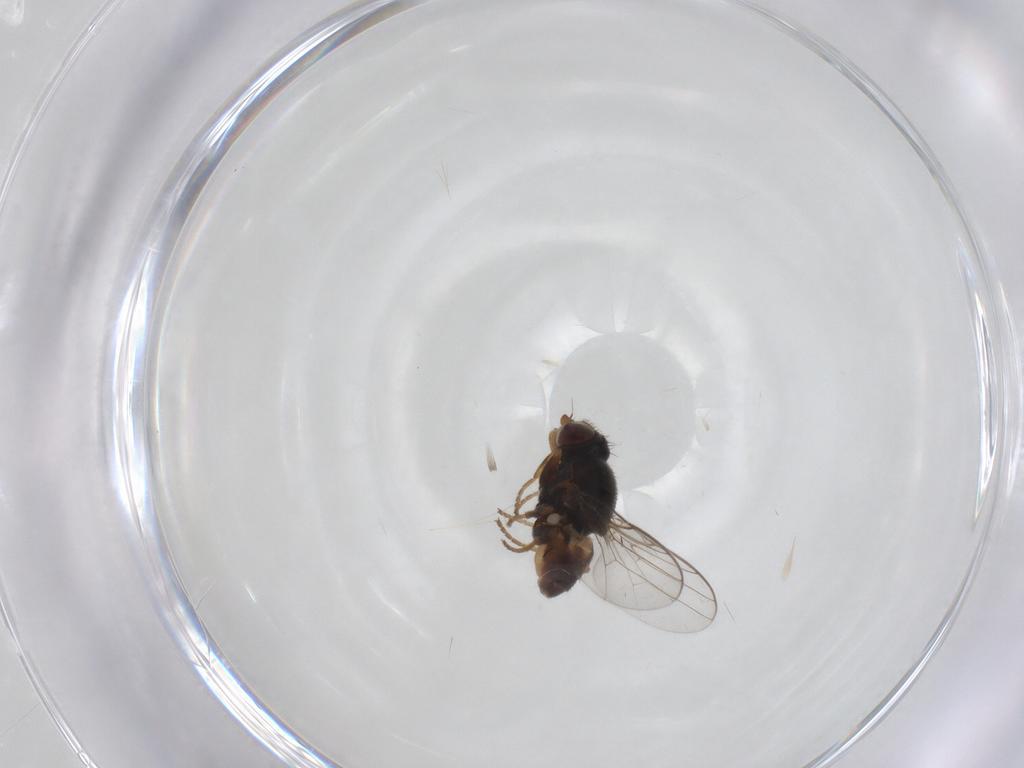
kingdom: Animalia
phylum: Arthropoda
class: Insecta
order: Diptera
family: Chloropidae
